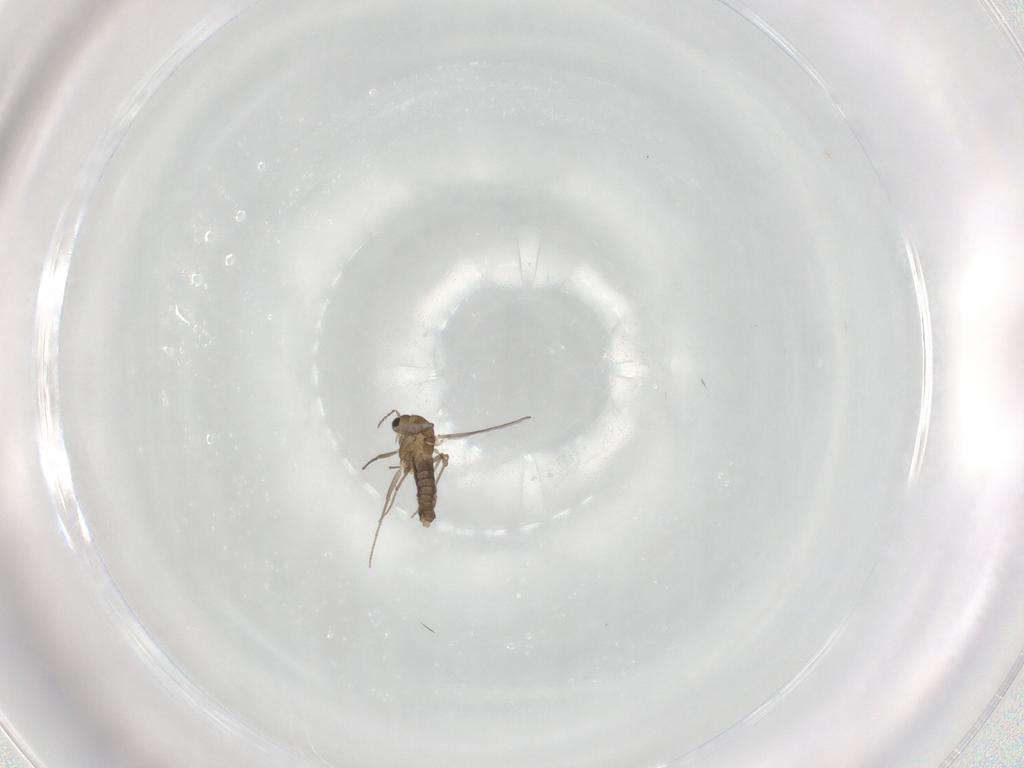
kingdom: Animalia
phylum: Arthropoda
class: Insecta
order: Diptera
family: Chironomidae
